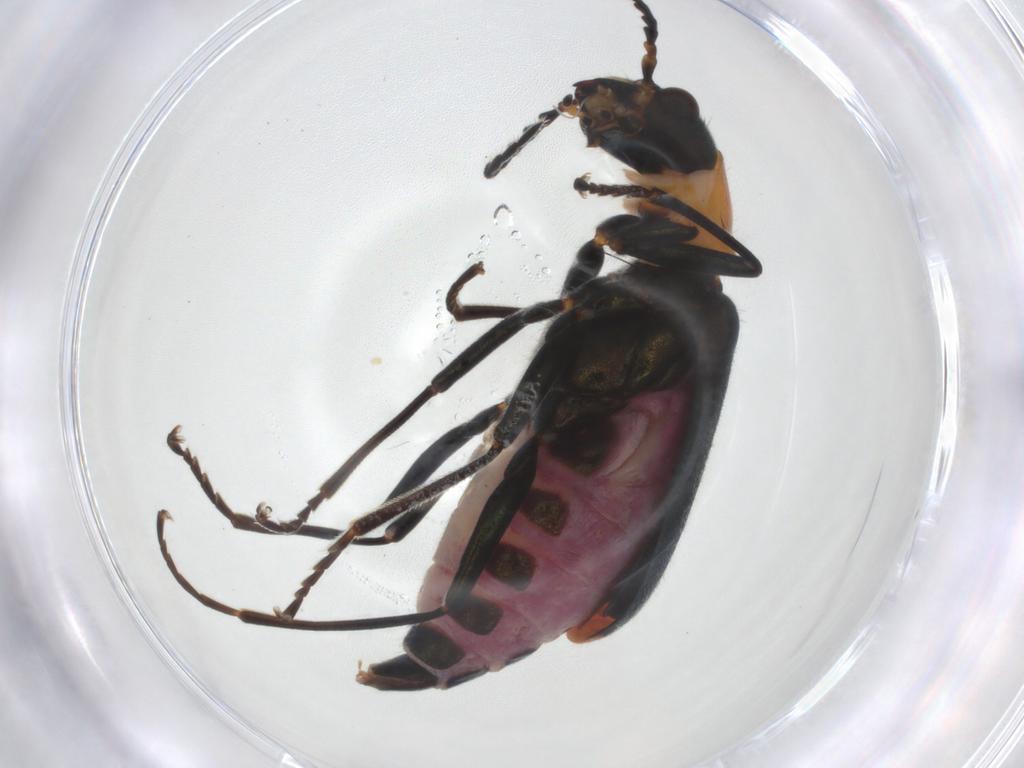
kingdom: Animalia
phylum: Arthropoda
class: Insecta
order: Coleoptera
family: Melyridae
